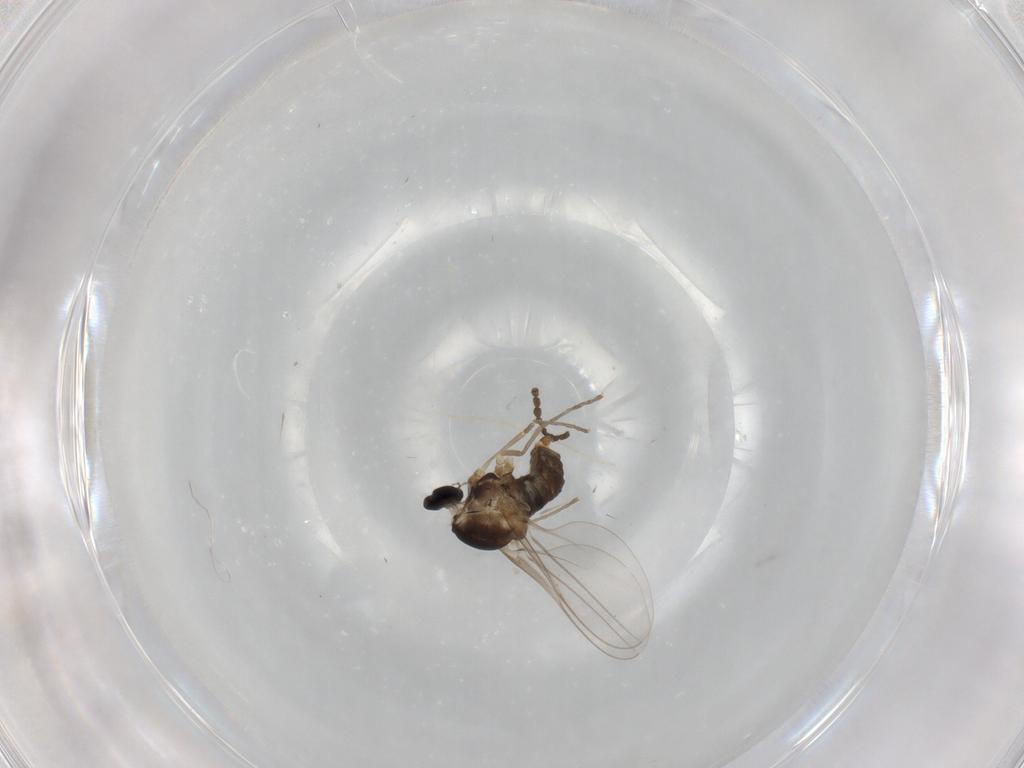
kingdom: Animalia
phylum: Arthropoda
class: Insecta
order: Diptera
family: Cecidomyiidae
